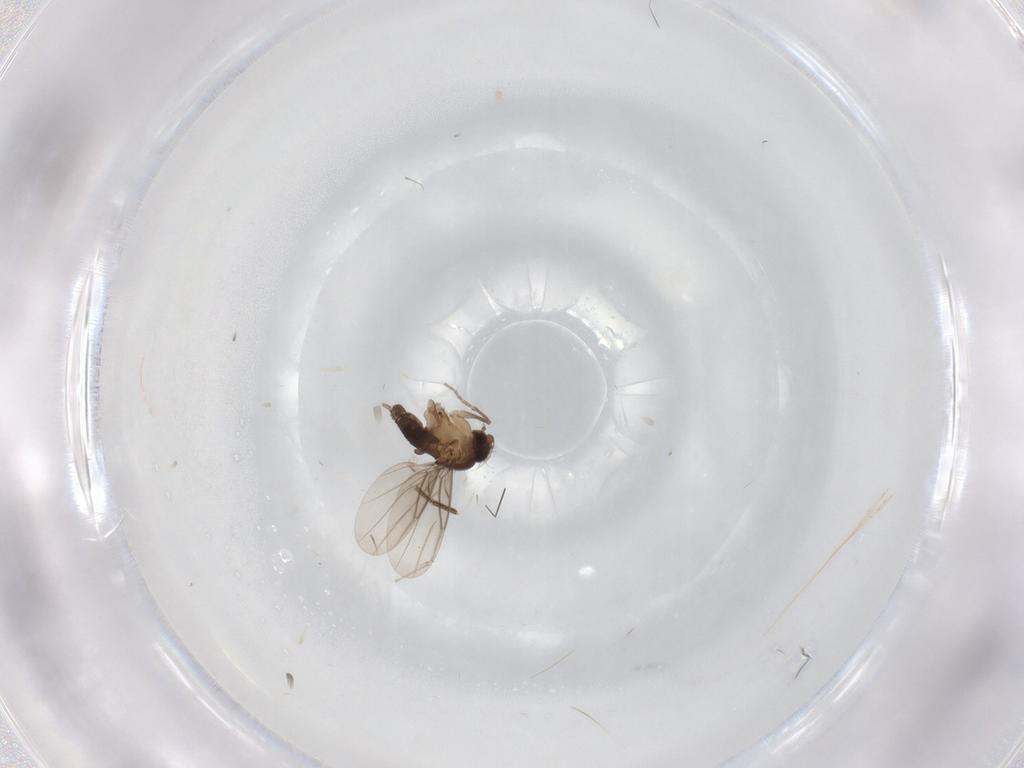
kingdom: Animalia
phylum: Arthropoda
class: Insecta
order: Diptera
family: Phoridae
